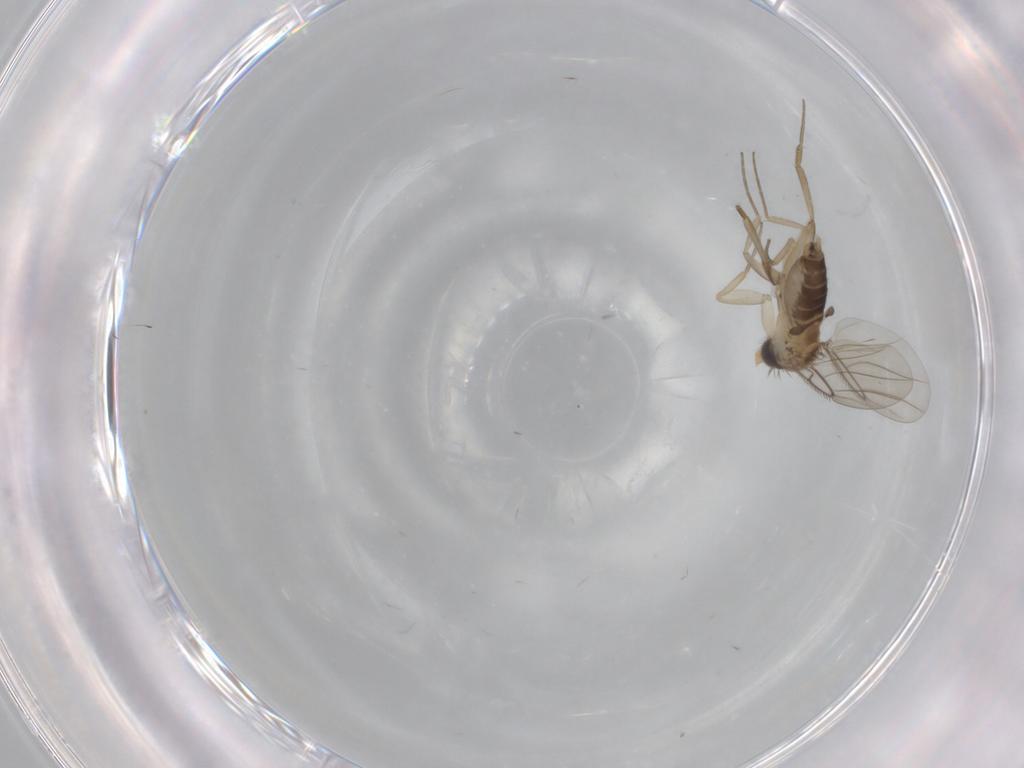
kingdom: Animalia
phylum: Arthropoda
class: Insecta
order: Diptera
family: Phoridae
